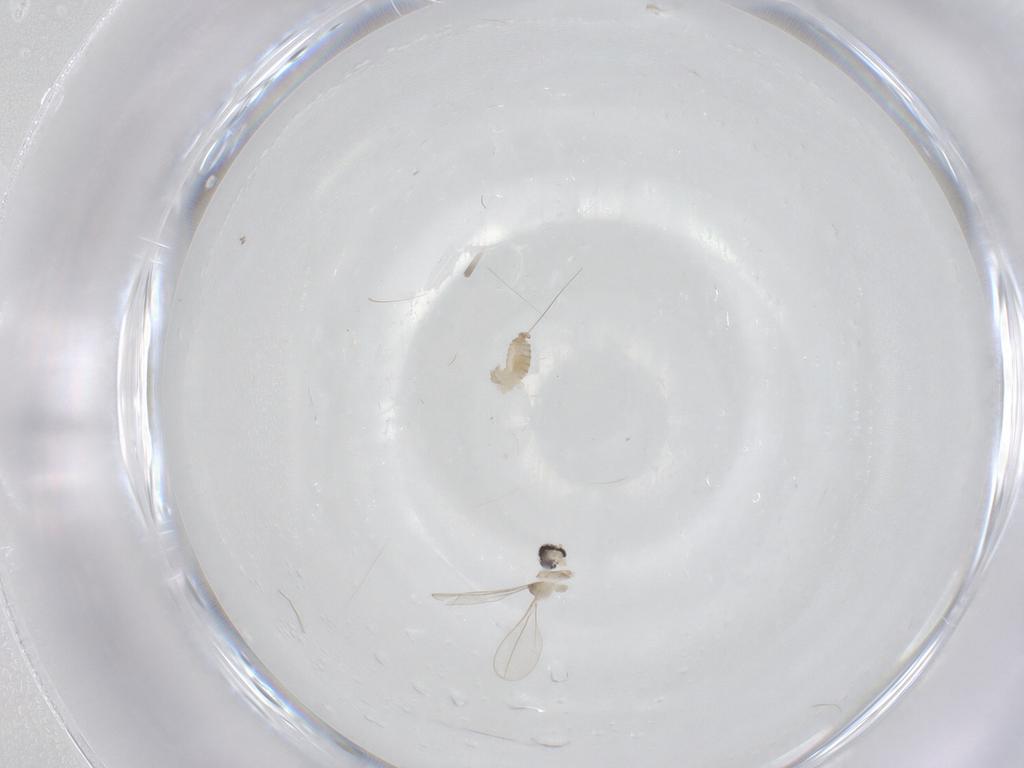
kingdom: Animalia
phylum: Arthropoda
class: Insecta
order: Diptera
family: Cecidomyiidae
